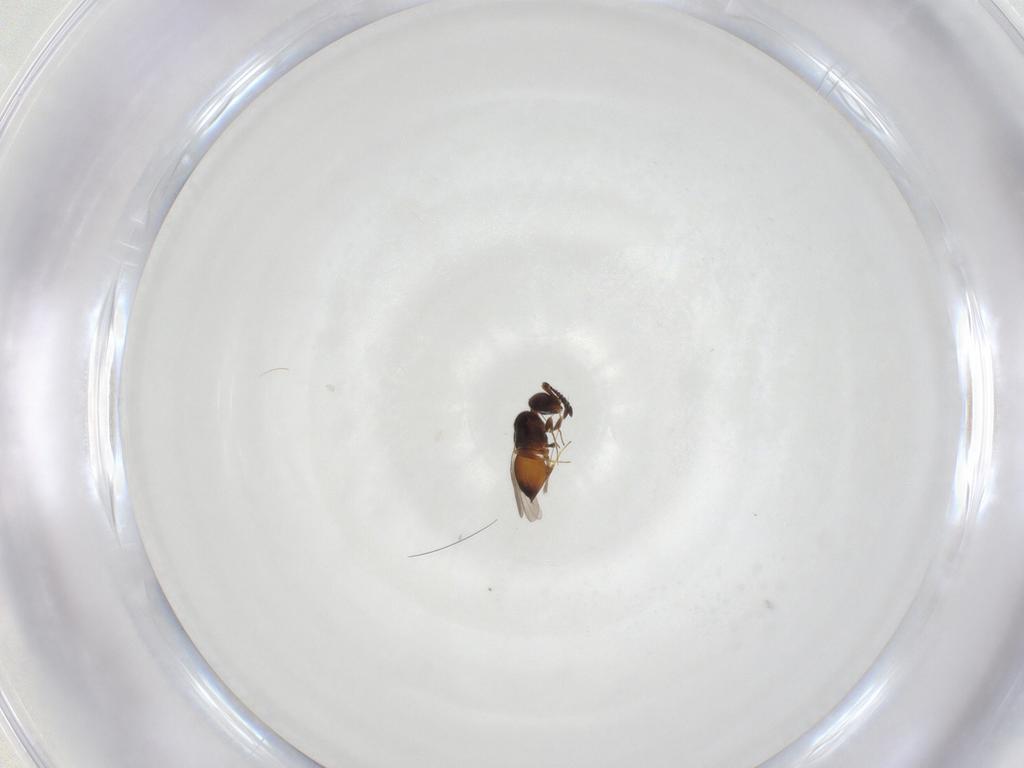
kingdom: Animalia
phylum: Arthropoda
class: Insecta
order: Hymenoptera
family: Ceraphronidae
